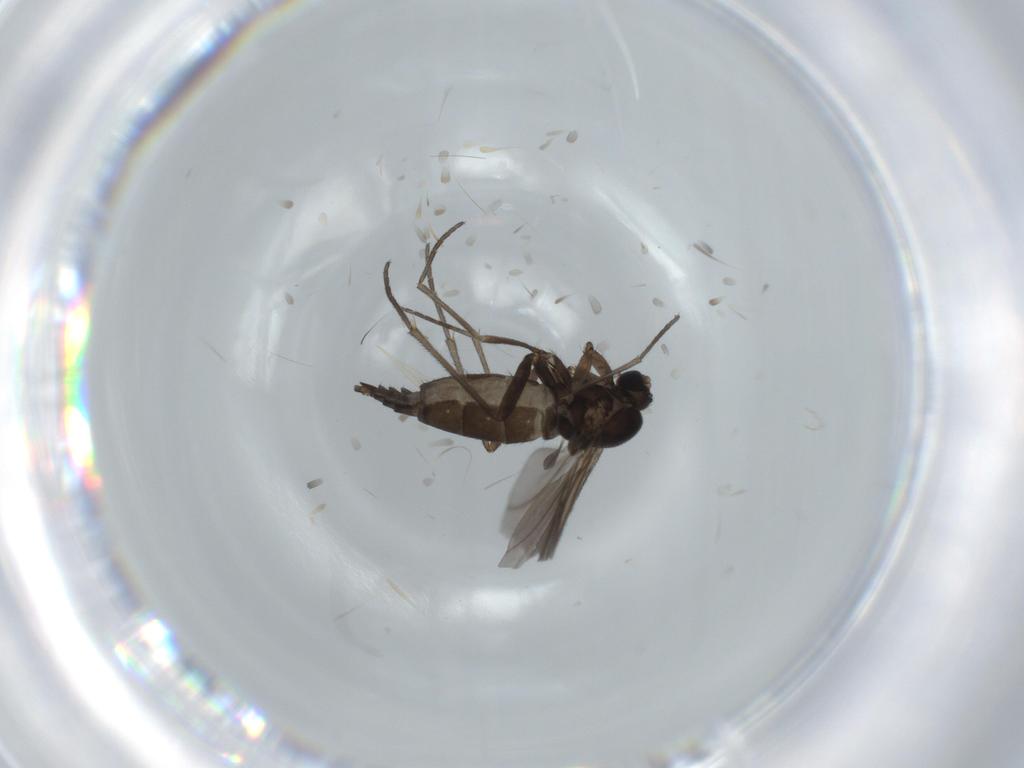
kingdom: Animalia
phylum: Arthropoda
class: Insecta
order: Diptera
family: Sciaridae
